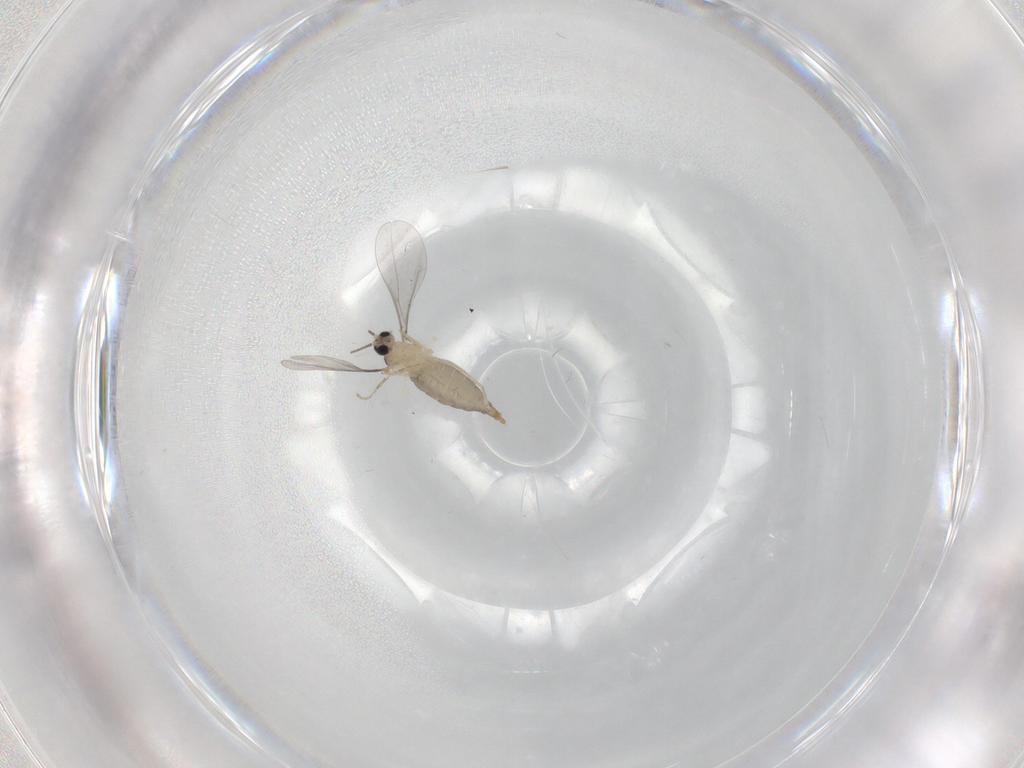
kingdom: Animalia
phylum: Arthropoda
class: Insecta
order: Diptera
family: Cecidomyiidae
